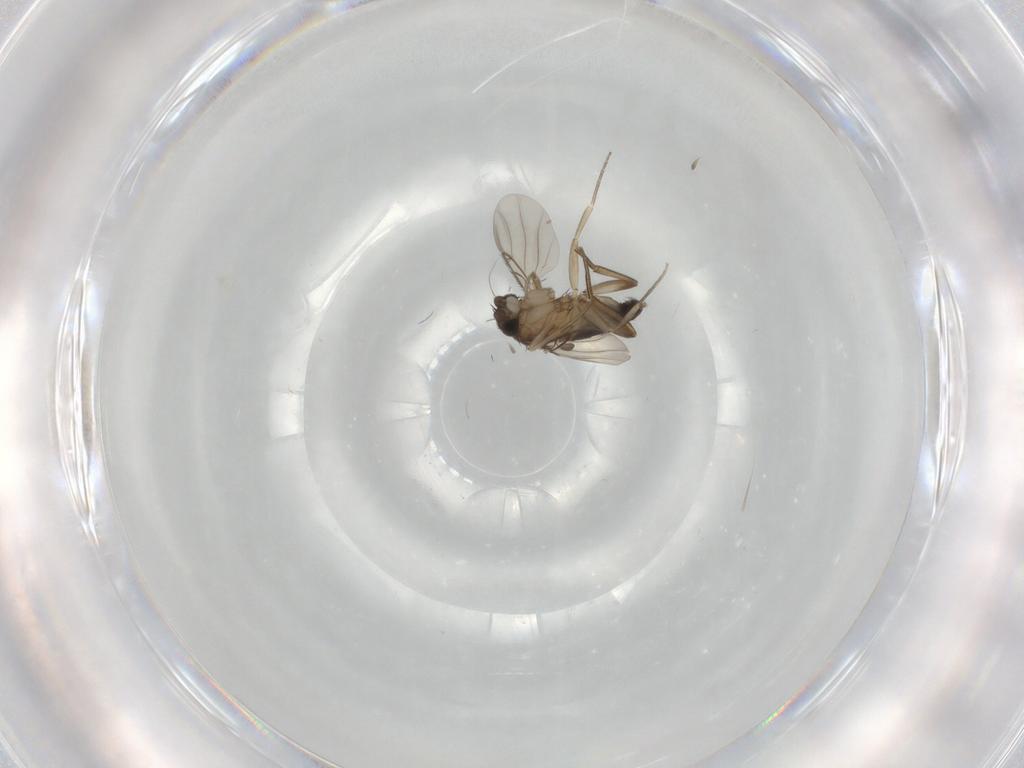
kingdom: Animalia
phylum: Arthropoda
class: Insecta
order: Diptera
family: Phoridae
